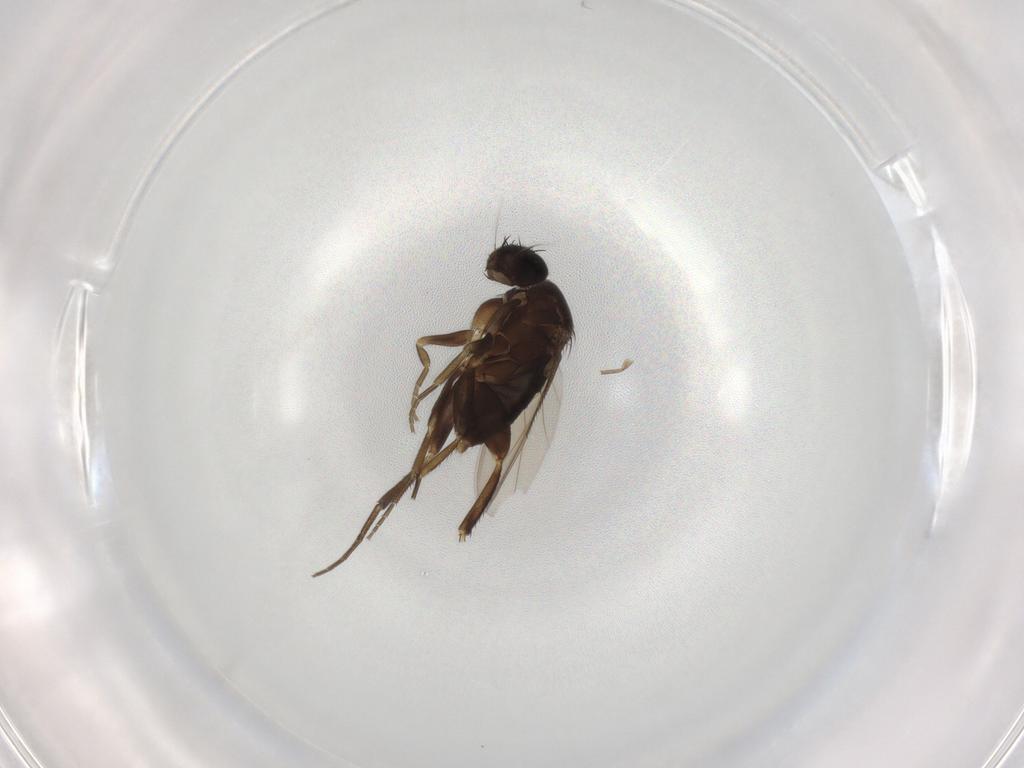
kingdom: Animalia
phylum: Arthropoda
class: Insecta
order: Diptera
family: Phoridae
